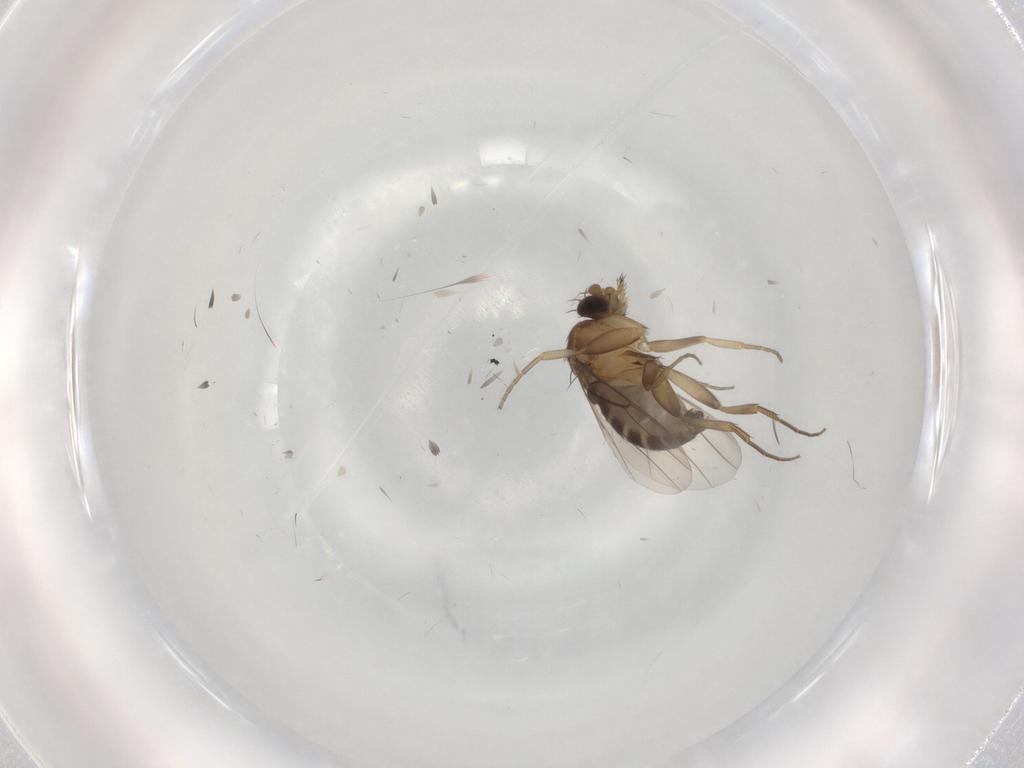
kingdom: Animalia
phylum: Arthropoda
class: Insecta
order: Diptera
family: Phoridae
